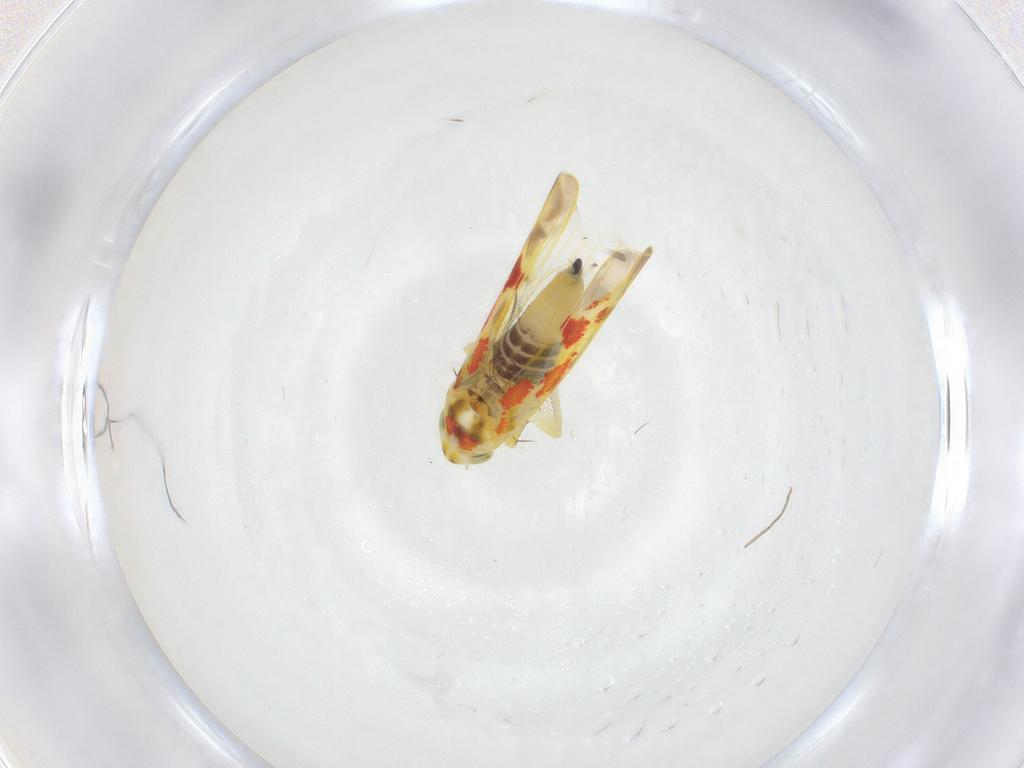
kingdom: Animalia
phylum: Arthropoda
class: Insecta
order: Hemiptera
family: Cicadellidae
